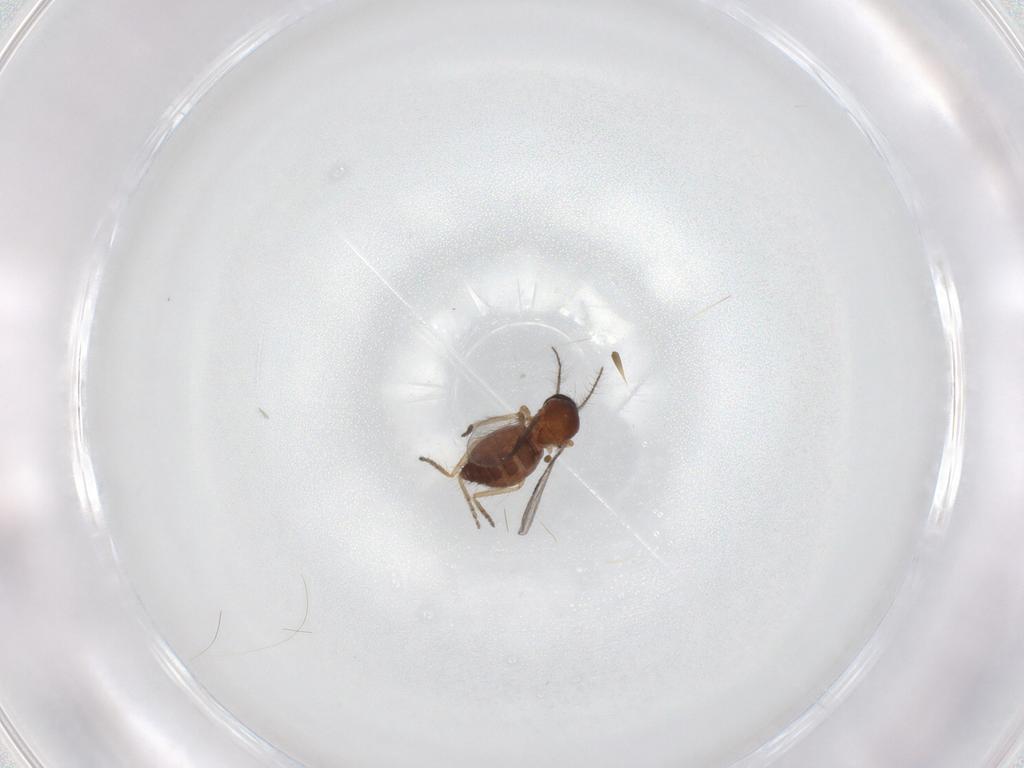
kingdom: Animalia
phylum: Arthropoda
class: Insecta
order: Diptera
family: Ceratopogonidae
